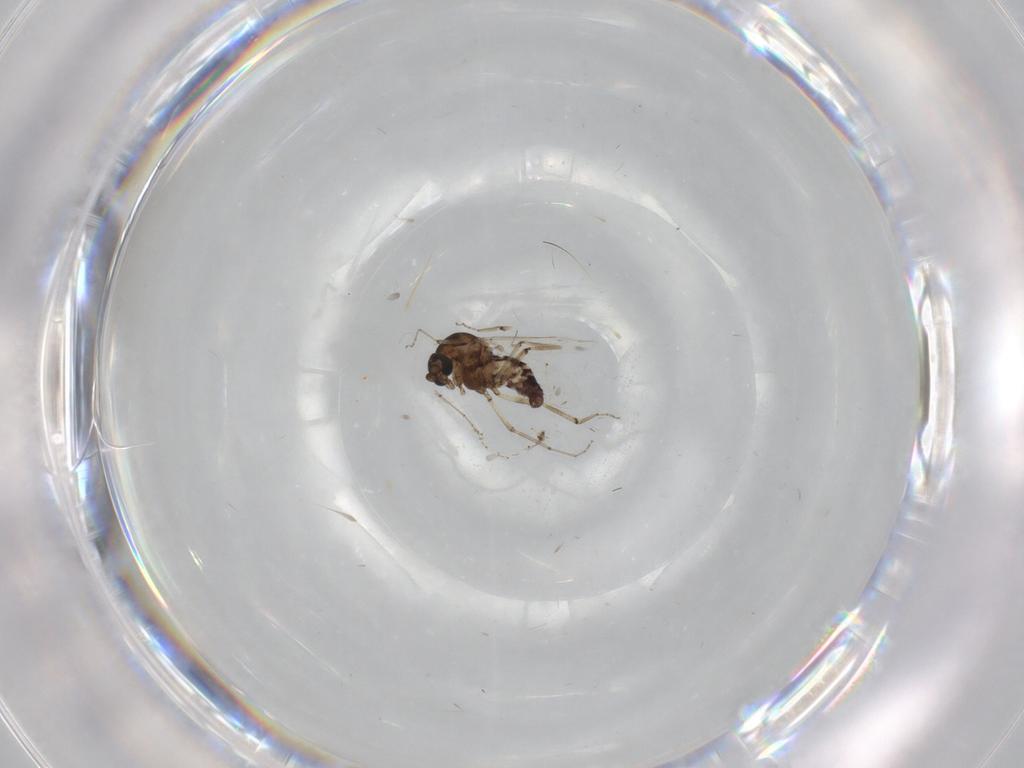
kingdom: Animalia
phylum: Arthropoda
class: Insecta
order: Diptera
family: Ceratopogonidae
